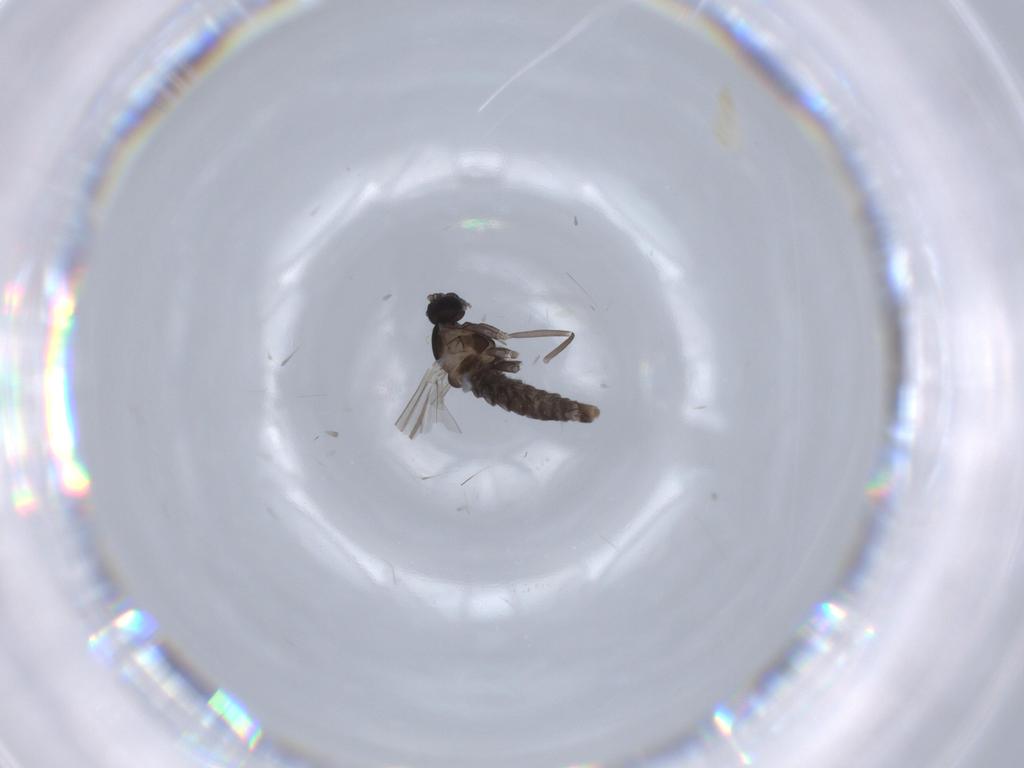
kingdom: Animalia
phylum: Arthropoda
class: Insecta
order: Diptera
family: Cecidomyiidae
